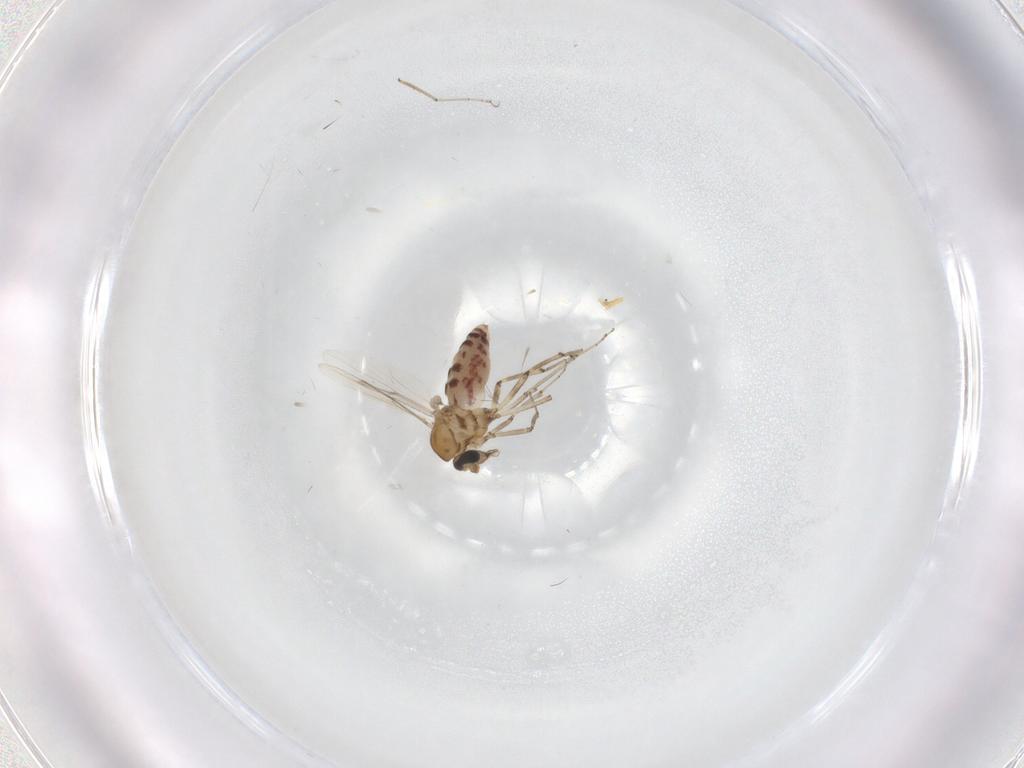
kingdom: Animalia
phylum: Arthropoda
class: Insecta
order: Diptera
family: Ceratopogonidae
